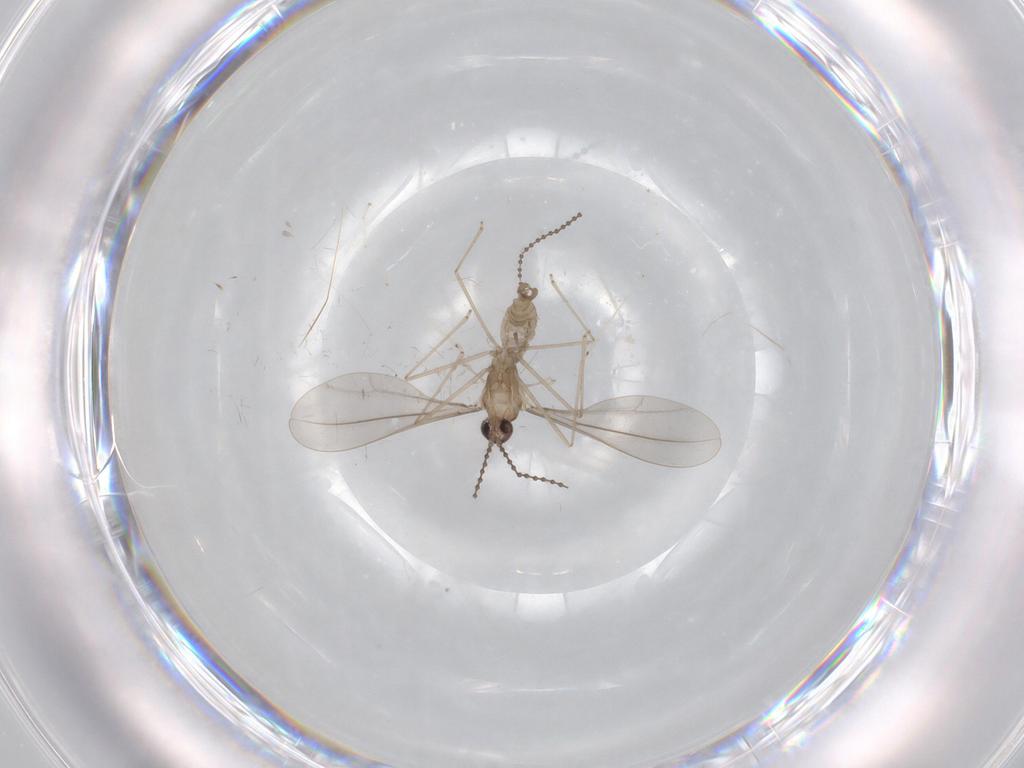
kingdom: Animalia
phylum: Arthropoda
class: Insecta
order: Diptera
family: Cecidomyiidae
